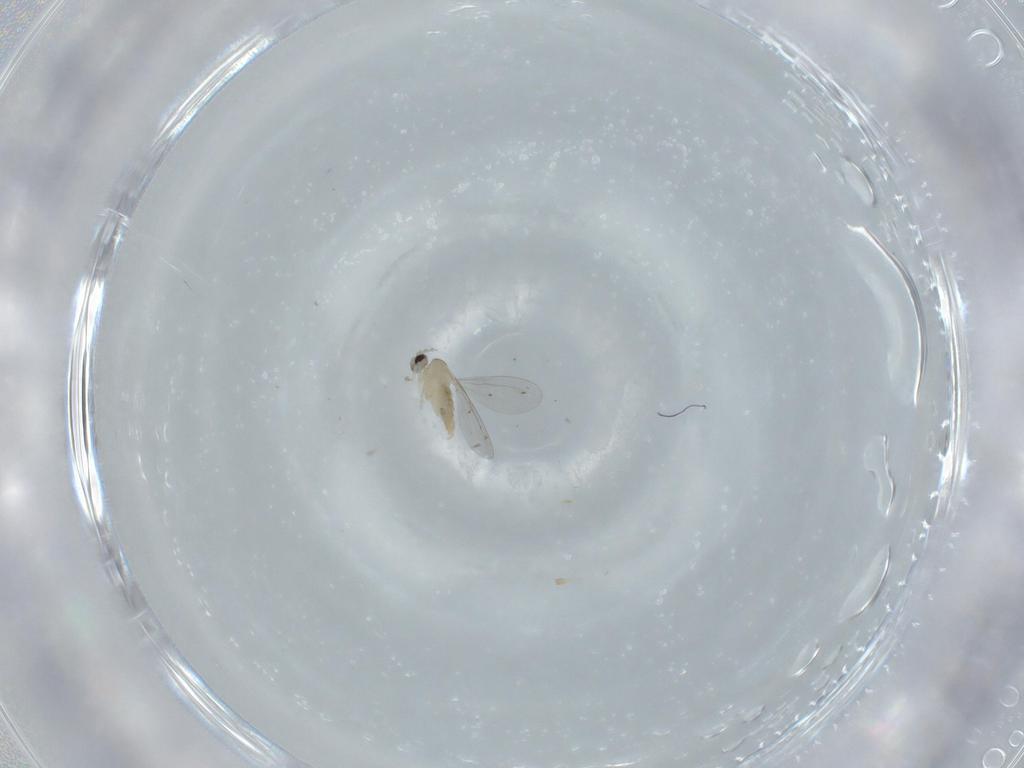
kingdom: Animalia
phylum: Arthropoda
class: Insecta
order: Diptera
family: Cecidomyiidae
